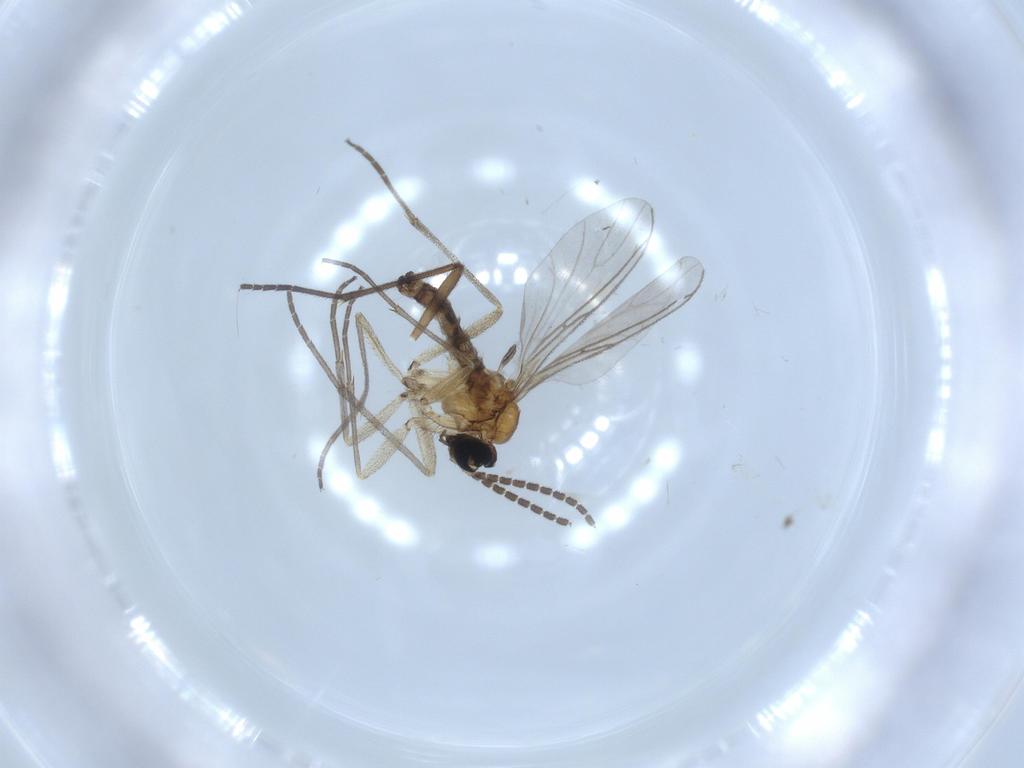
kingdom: Animalia
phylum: Arthropoda
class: Insecta
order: Diptera
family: Sciaridae
